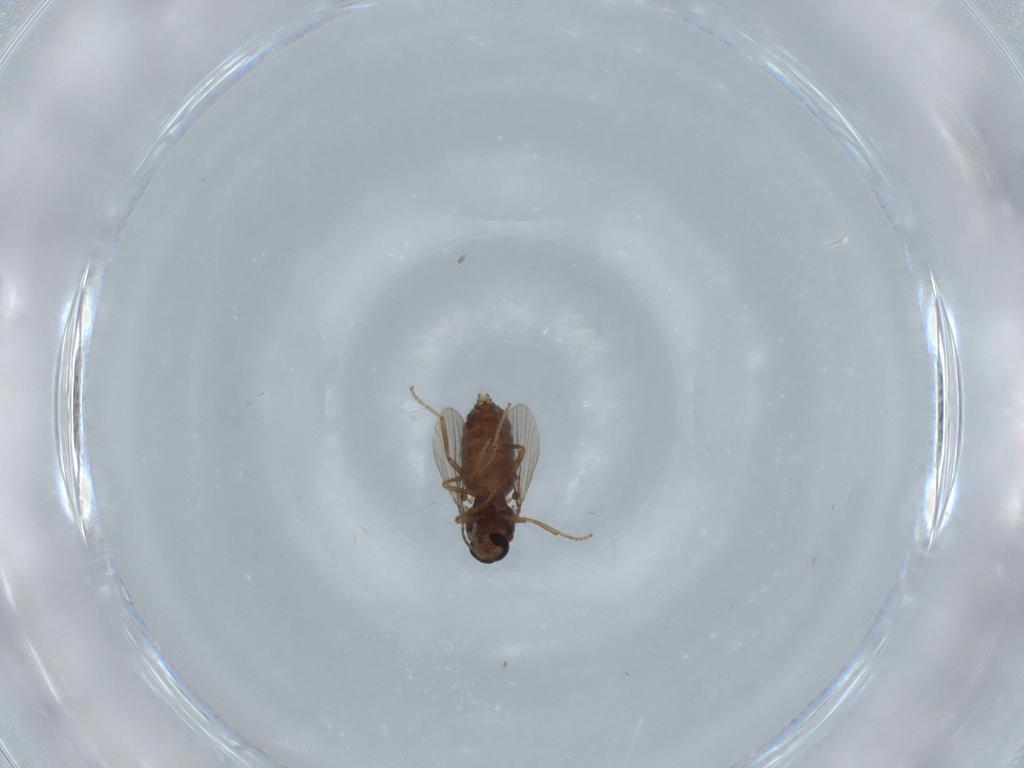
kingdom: Animalia
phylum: Arthropoda
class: Insecta
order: Diptera
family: Ceratopogonidae
